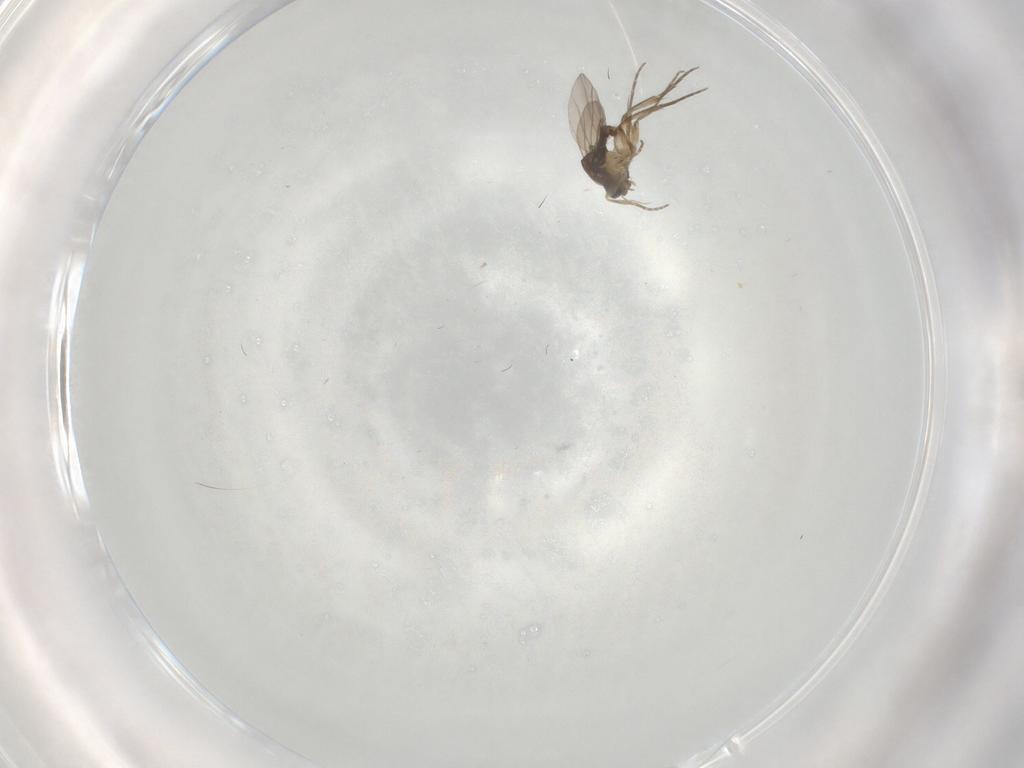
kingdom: Animalia
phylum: Arthropoda
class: Insecta
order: Diptera
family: Phoridae
